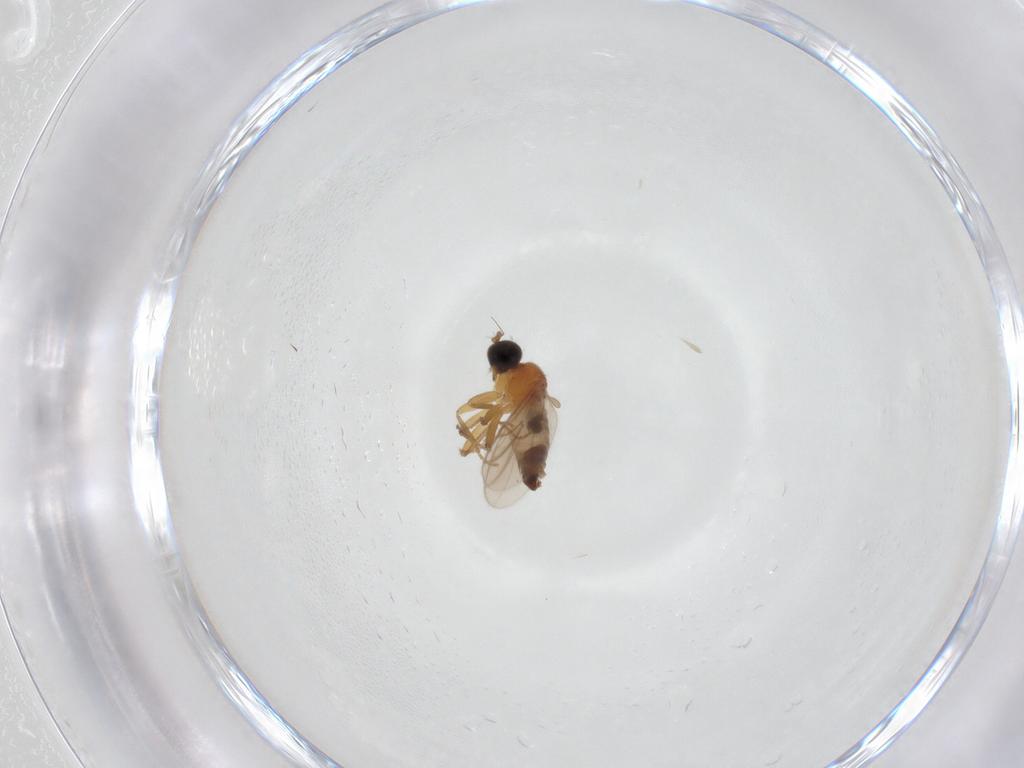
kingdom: Animalia
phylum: Arthropoda
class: Insecta
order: Diptera
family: Hybotidae
